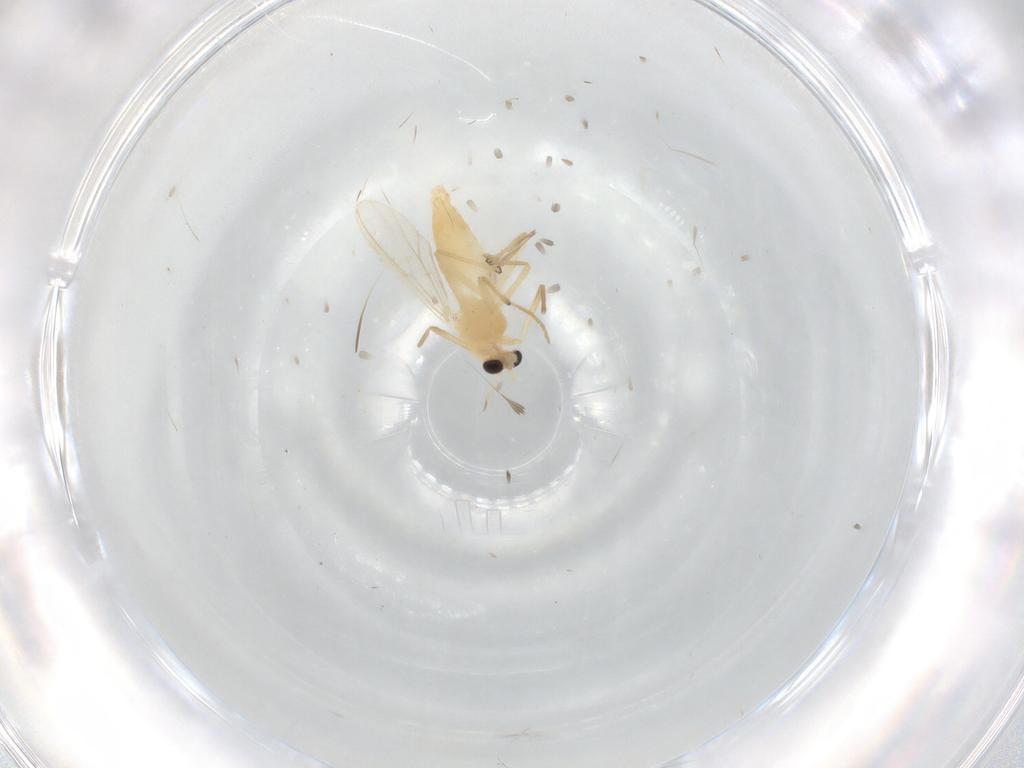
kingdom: Animalia
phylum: Arthropoda
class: Insecta
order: Diptera
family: Chironomidae
